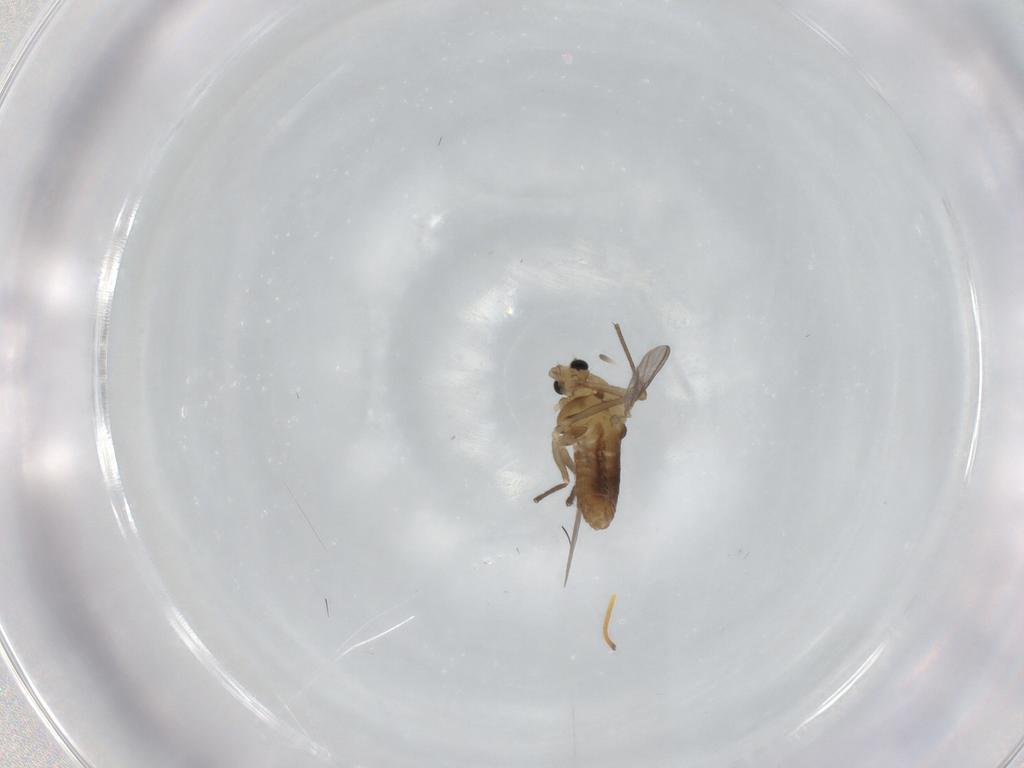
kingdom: Animalia
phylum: Arthropoda
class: Insecta
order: Diptera
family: Chironomidae
